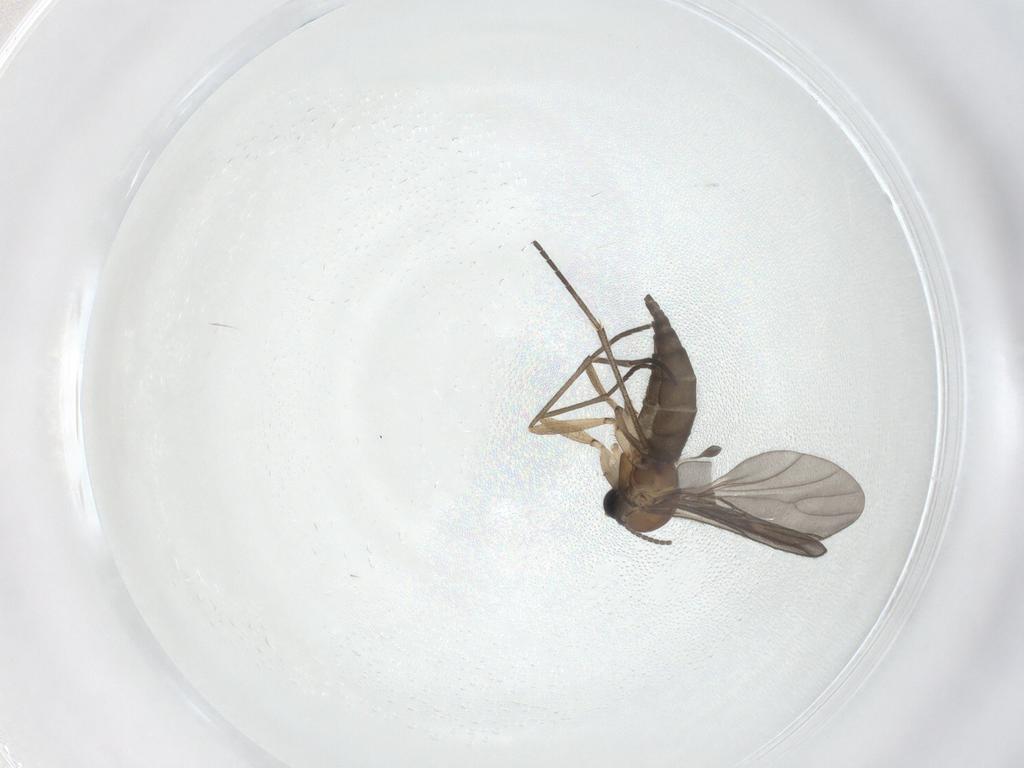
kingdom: Animalia
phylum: Arthropoda
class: Insecta
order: Diptera
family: Sciaridae
